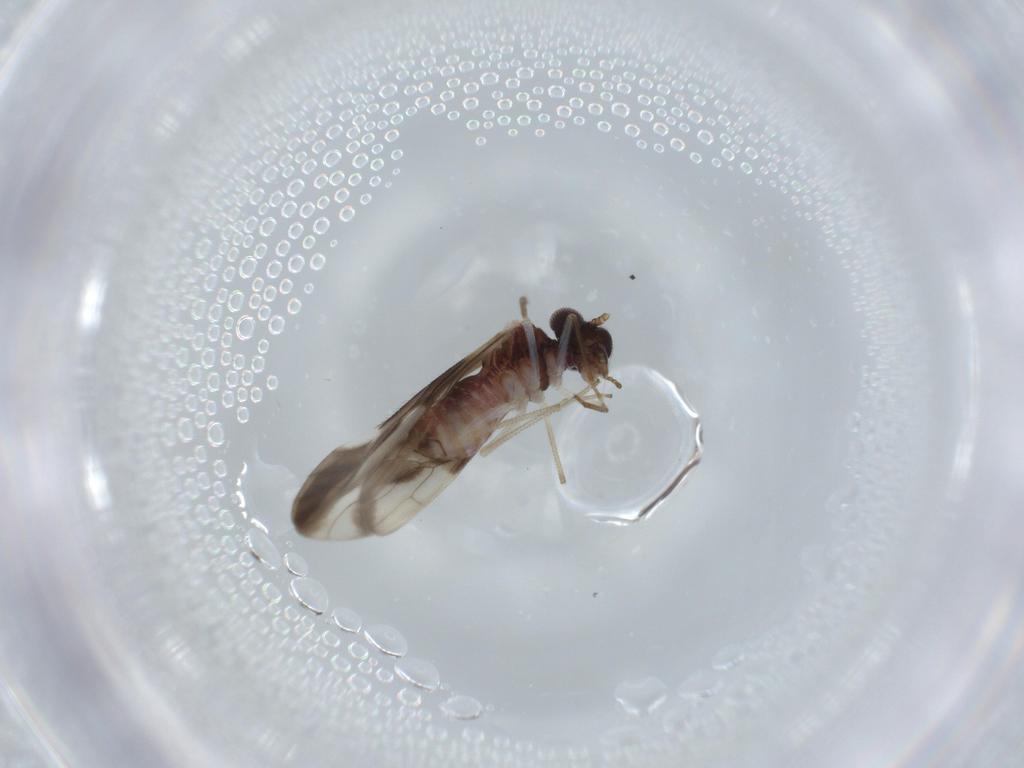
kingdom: Animalia
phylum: Arthropoda
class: Insecta
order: Psocodea
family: Caeciliusidae
